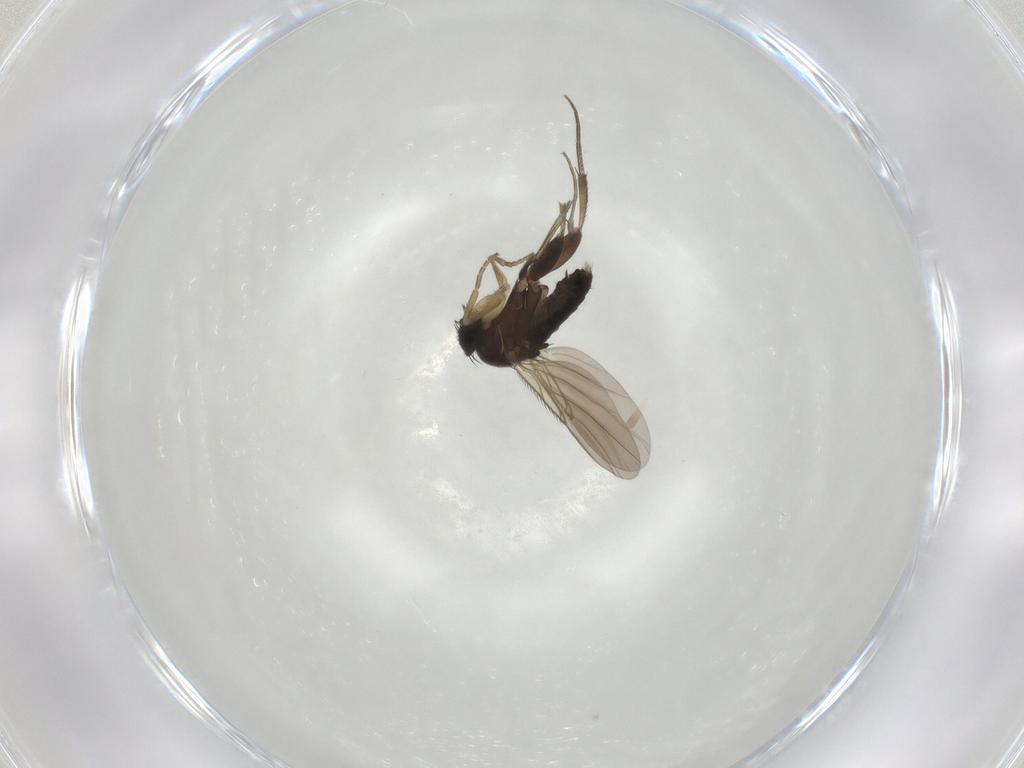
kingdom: Animalia
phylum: Arthropoda
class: Insecta
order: Diptera
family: Phoridae
